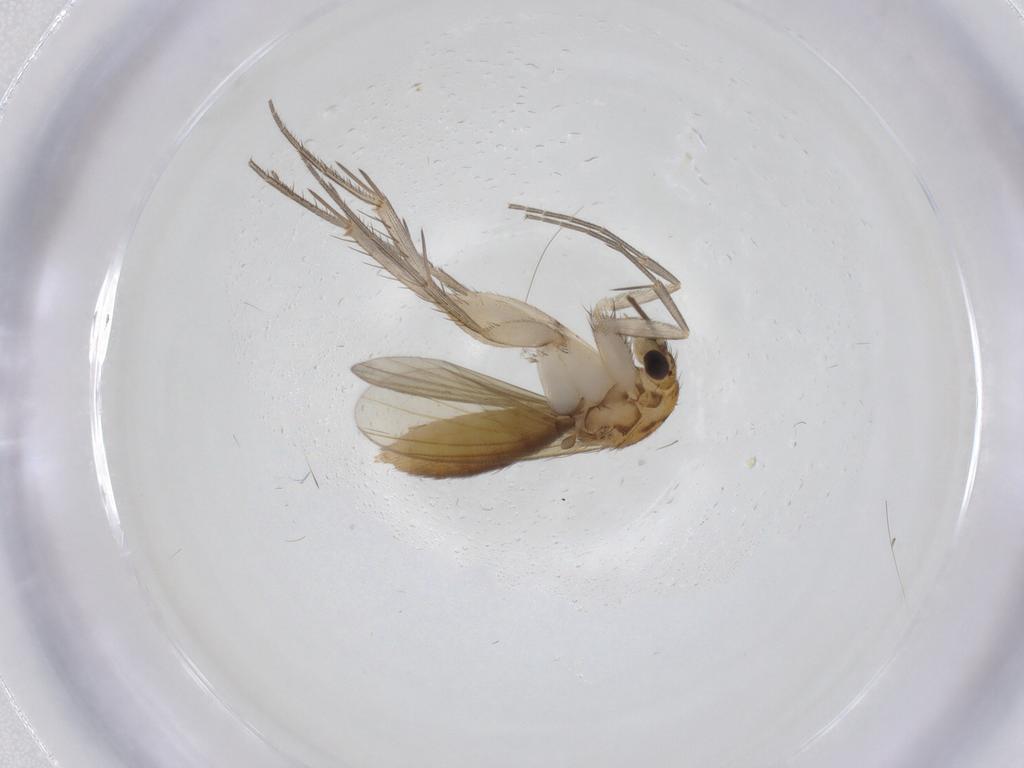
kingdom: Animalia
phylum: Arthropoda
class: Insecta
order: Diptera
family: Mycetophilidae
